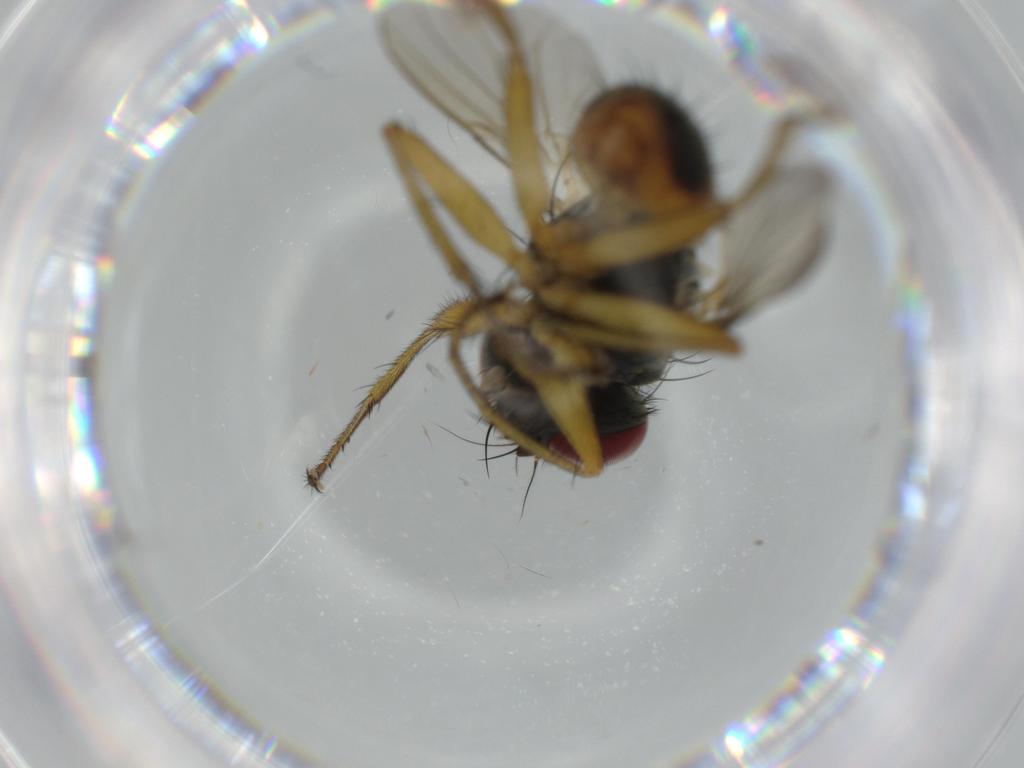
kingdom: Animalia
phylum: Arthropoda
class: Insecta
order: Diptera
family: Muscidae
